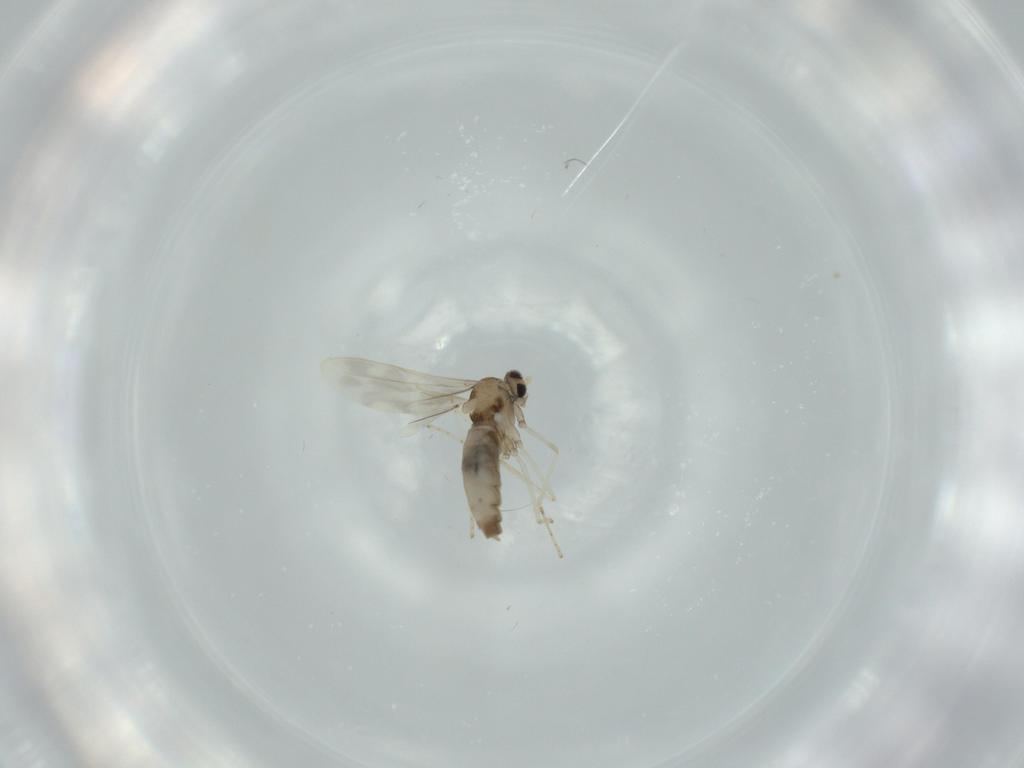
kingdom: Animalia
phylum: Arthropoda
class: Insecta
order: Diptera
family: Cecidomyiidae
